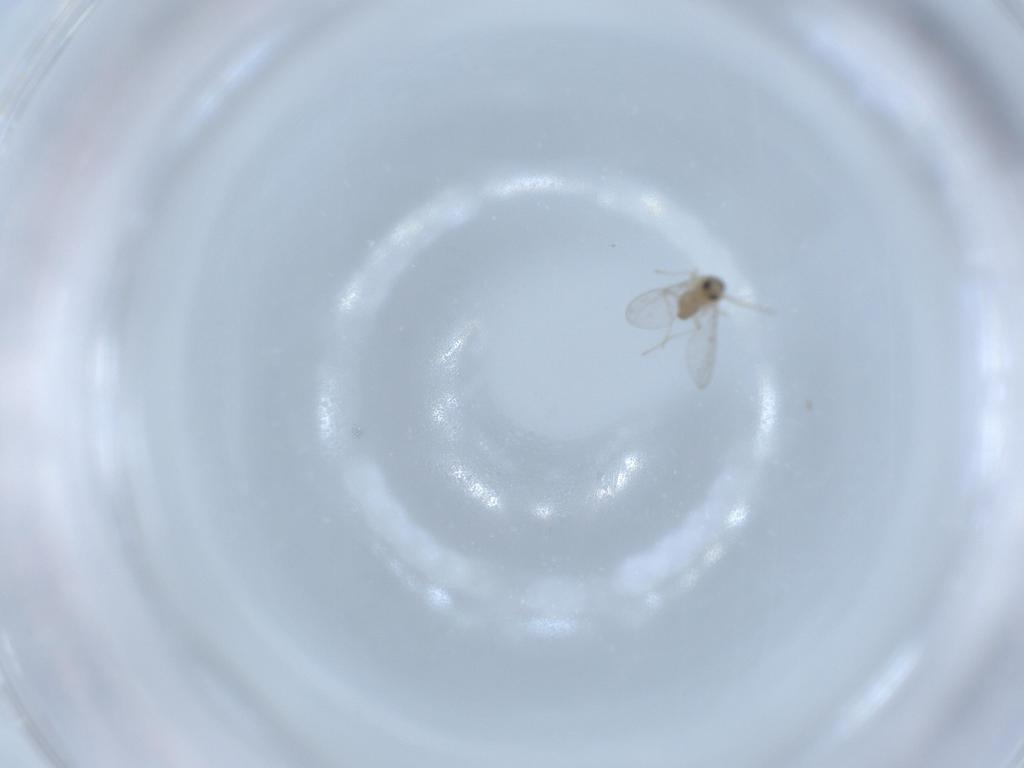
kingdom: Animalia
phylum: Arthropoda
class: Insecta
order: Diptera
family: Cecidomyiidae
